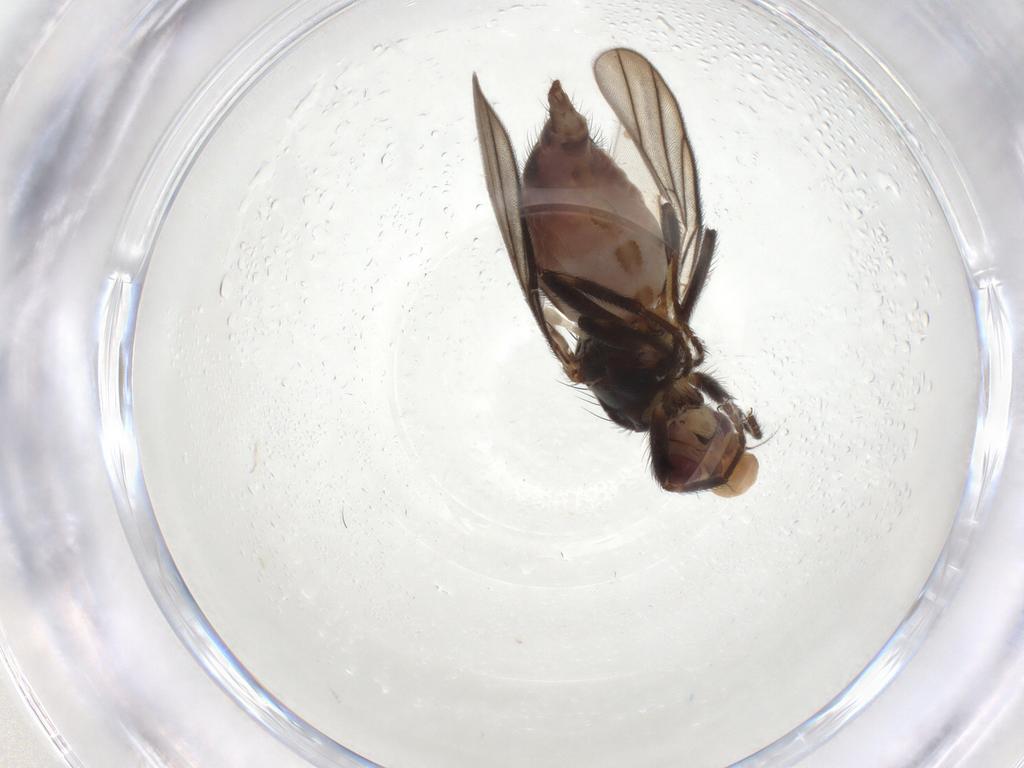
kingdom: Animalia
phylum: Arthropoda
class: Insecta
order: Diptera
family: Chloropidae
